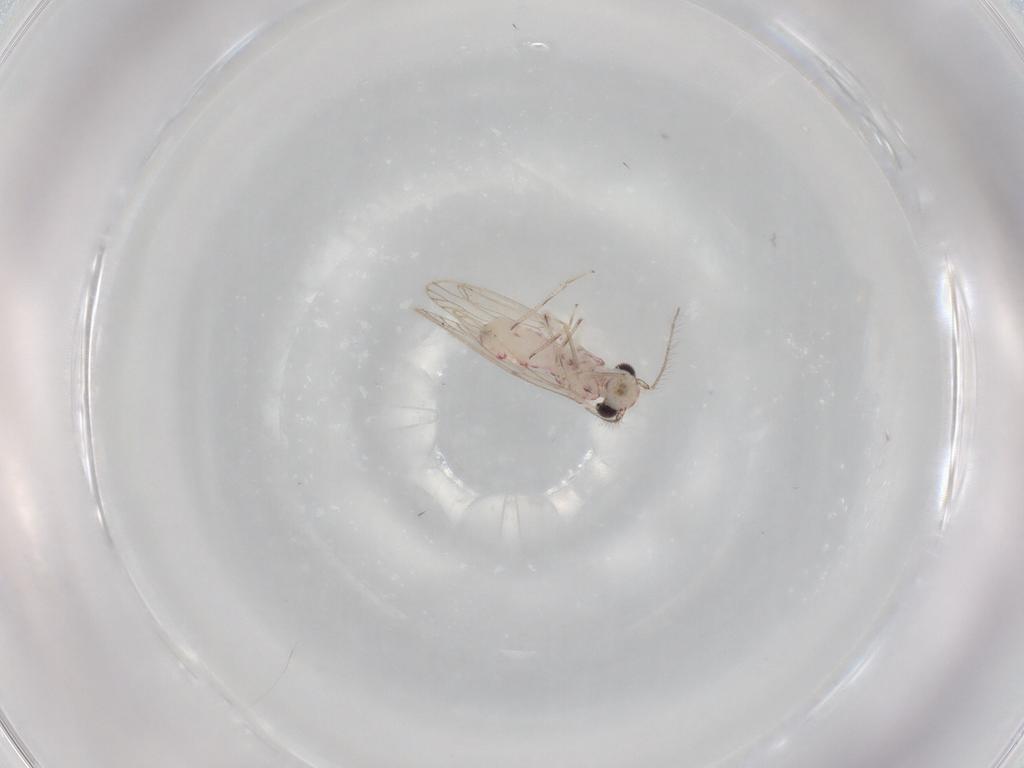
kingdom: Animalia
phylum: Arthropoda
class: Insecta
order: Psocodea
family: Caeciliusidae
